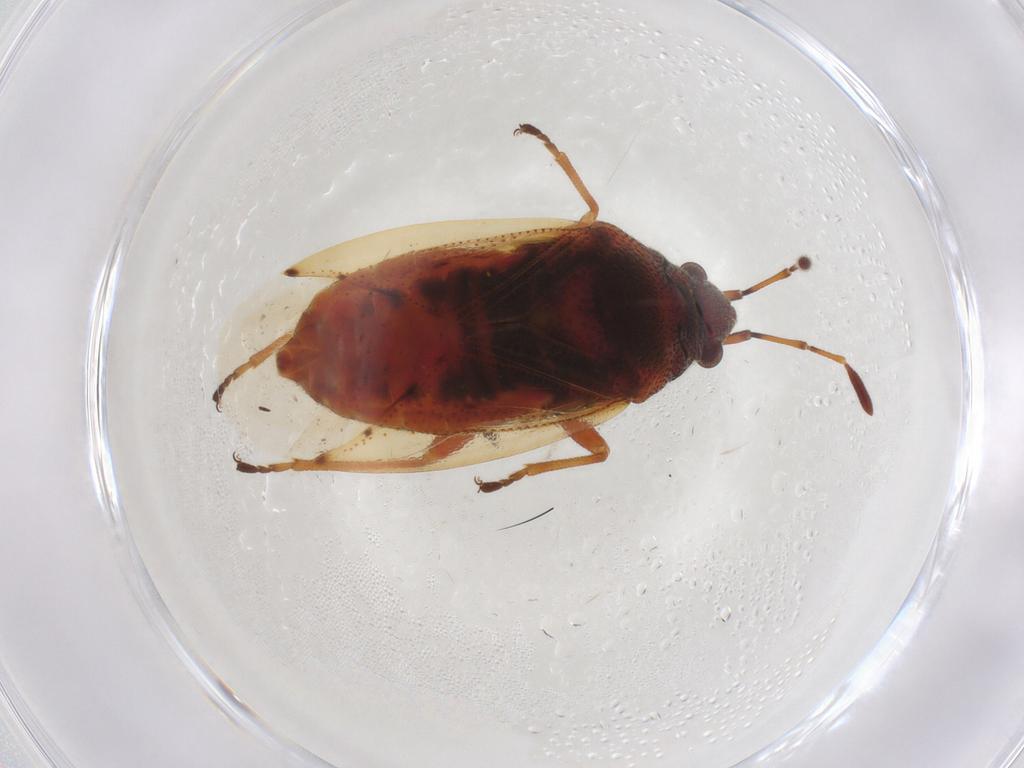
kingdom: Animalia
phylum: Arthropoda
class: Insecta
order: Hemiptera
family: Lygaeidae
